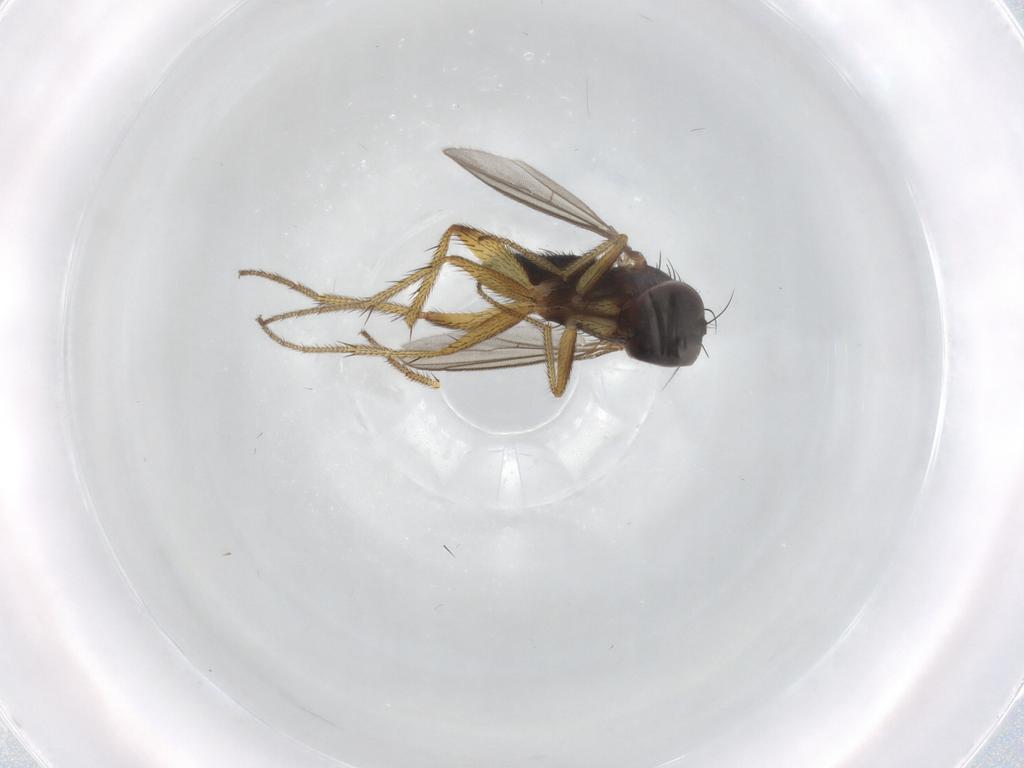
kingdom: Animalia
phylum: Arthropoda
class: Insecta
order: Diptera
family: Dolichopodidae
